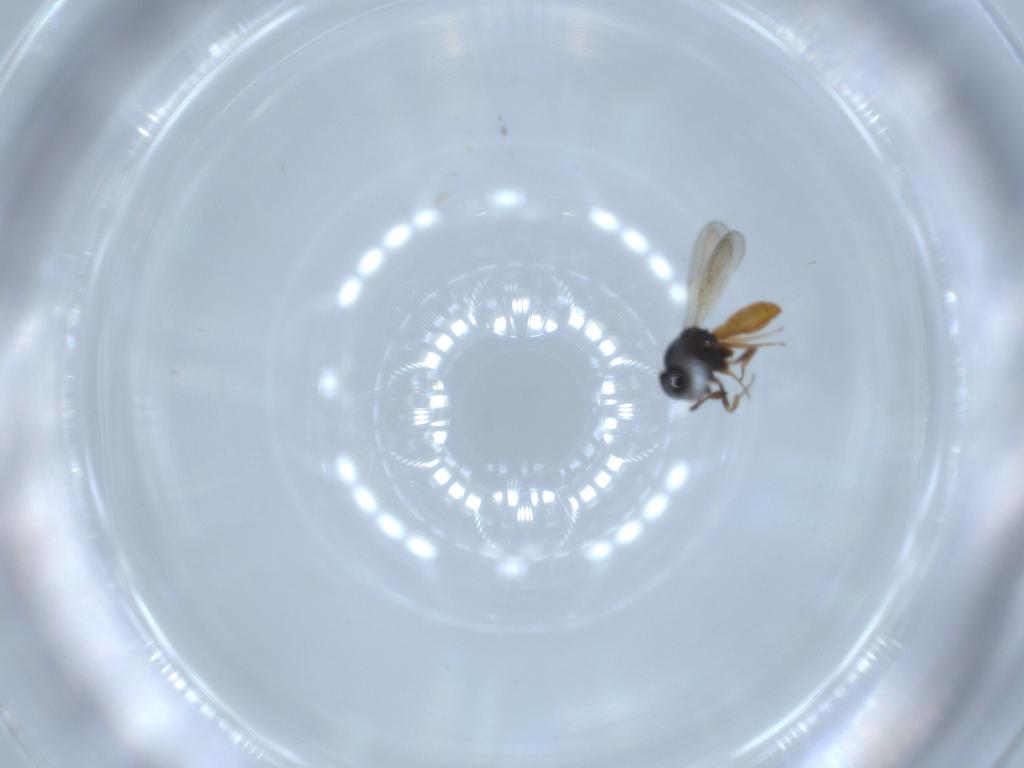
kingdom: Animalia
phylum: Arthropoda
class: Insecta
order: Hymenoptera
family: Scelionidae
